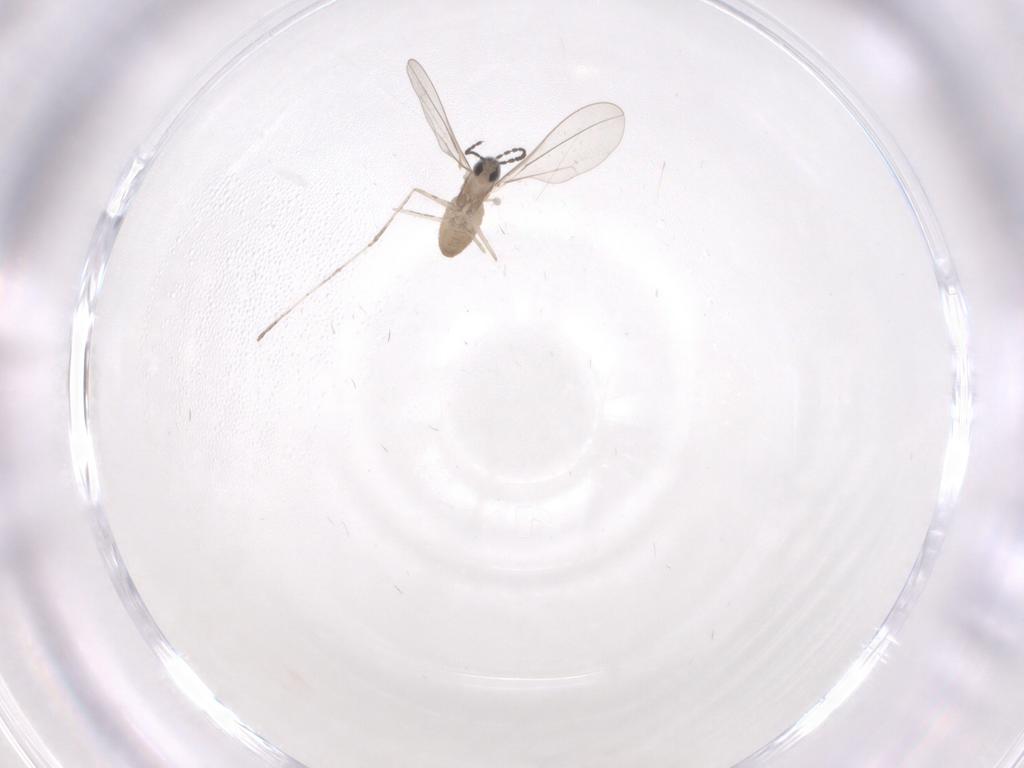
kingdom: Animalia
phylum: Arthropoda
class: Insecta
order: Diptera
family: Cecidomyiidae
